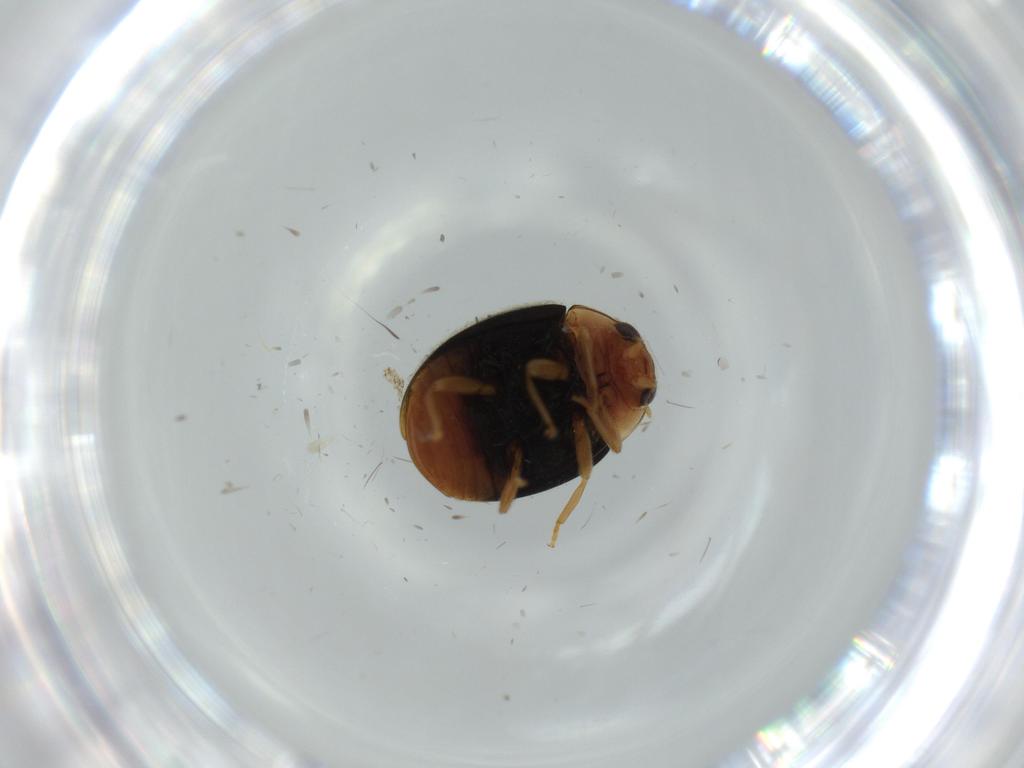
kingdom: Animalia
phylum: Arthropoda
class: Insecta
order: Coleoptera
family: Coccinellidae
